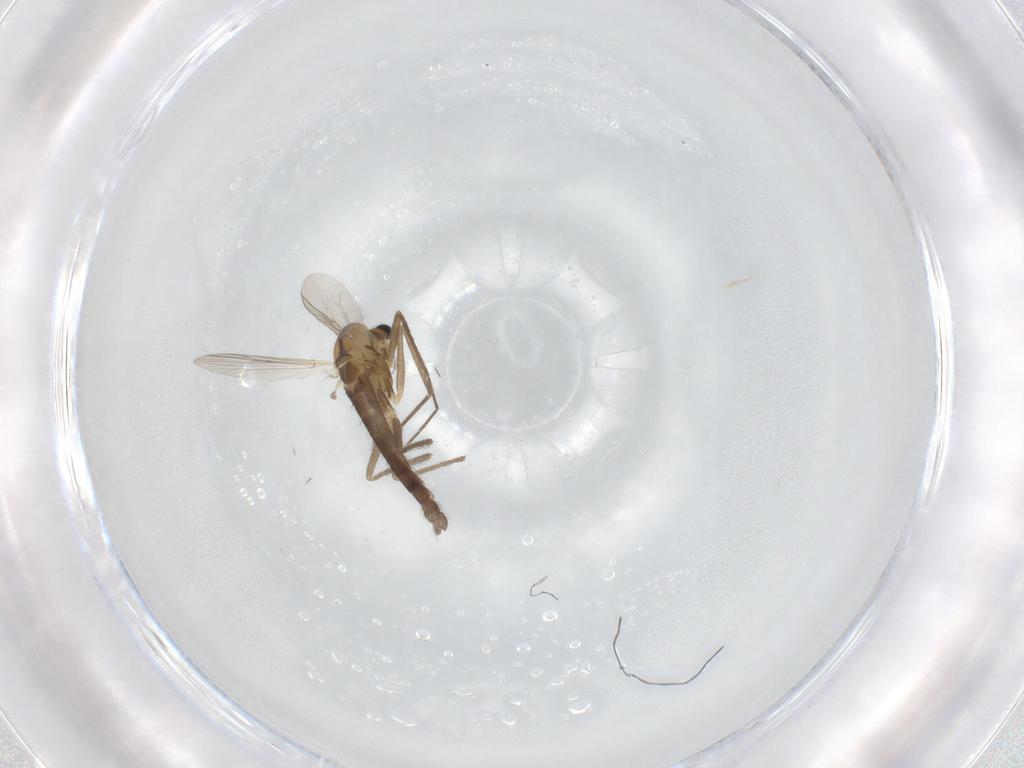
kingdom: Animalia
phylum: Arthropoda
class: Insecta
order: Diptera
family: Chironomidae
